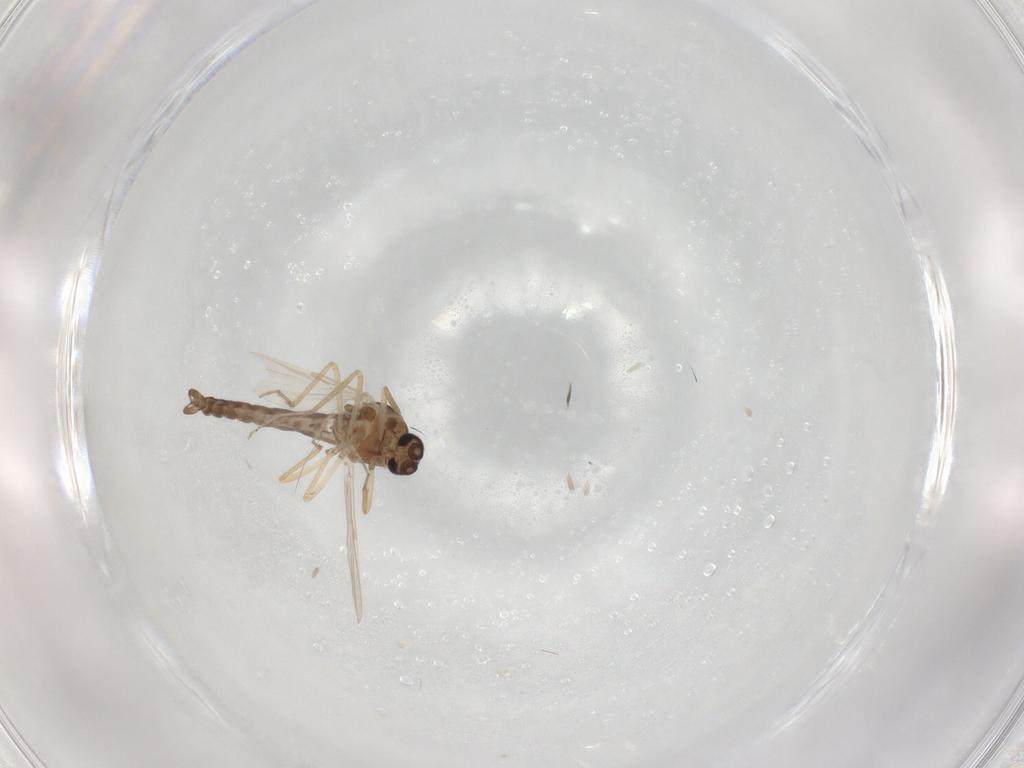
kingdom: Animalia
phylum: Arthropoda
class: Insecta
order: Diptera
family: Ceratopogonidae
